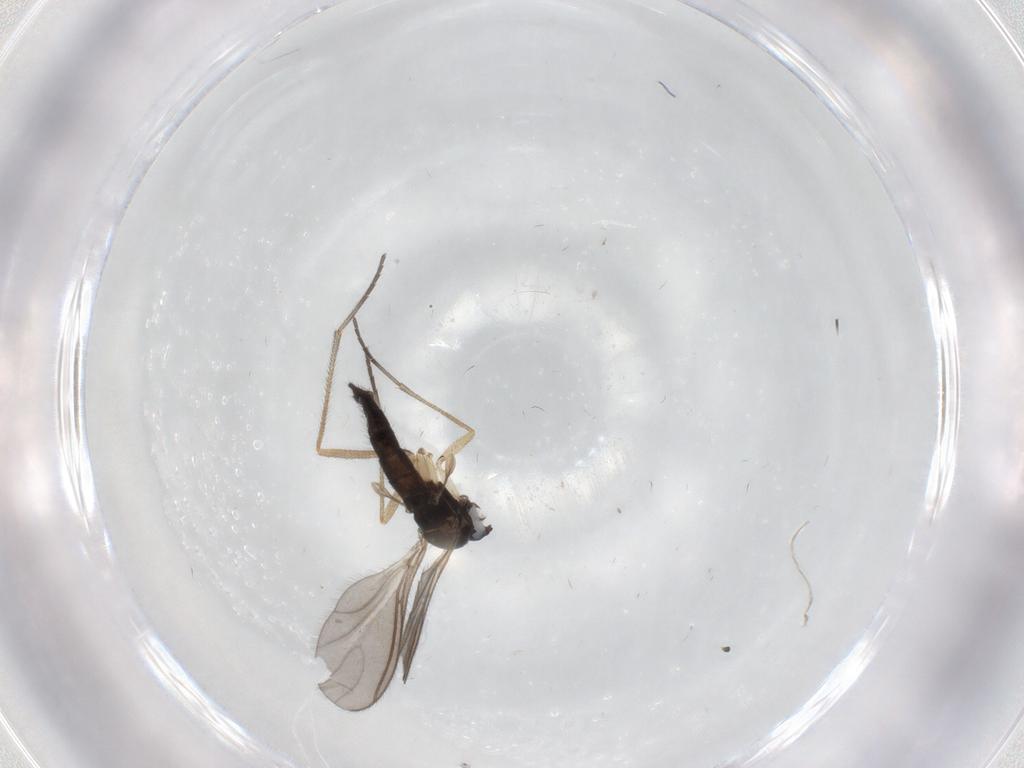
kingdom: Animalia
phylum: Arthropoda
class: Insecta
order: Diptera
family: Sciaridae
